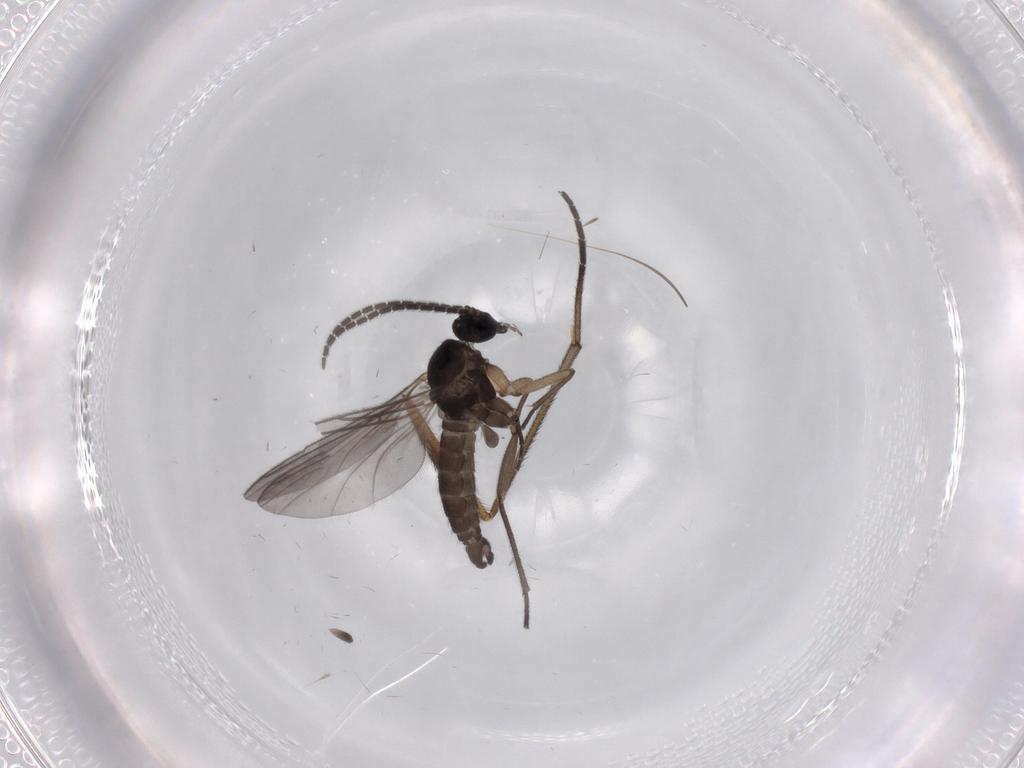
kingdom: Animalia
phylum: Arthropoda
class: Insecta
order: Diptera
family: Sciaridae
